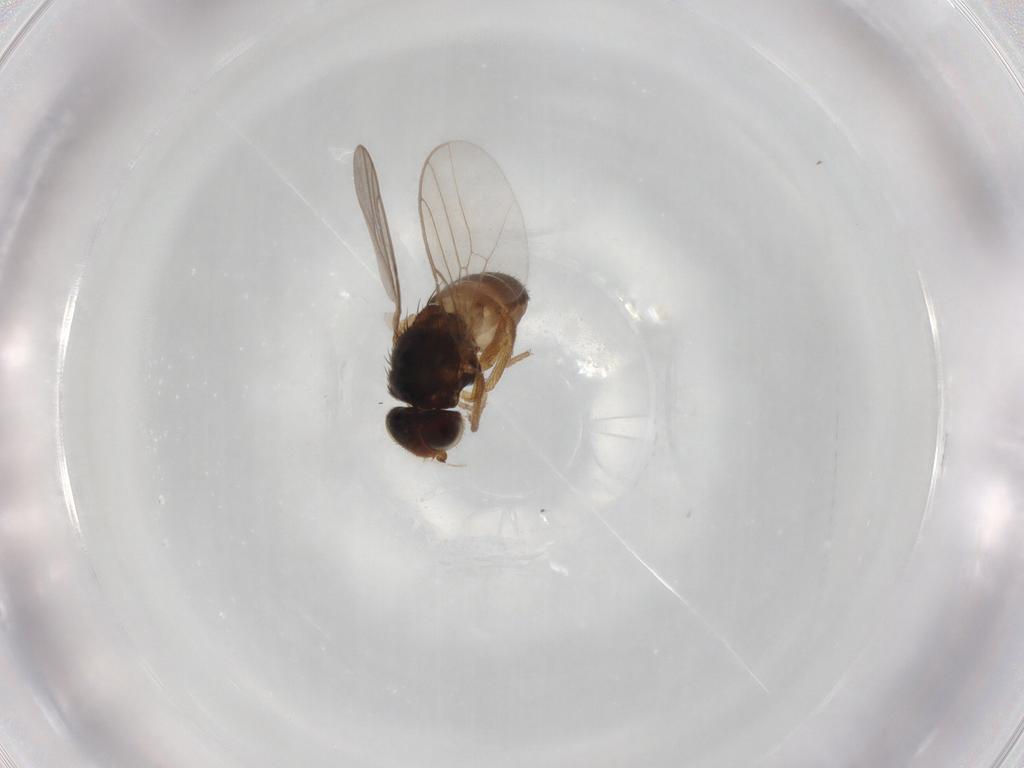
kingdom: Animalia
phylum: Arthropoda
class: Insecta
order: Diptera
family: Chloropidae
